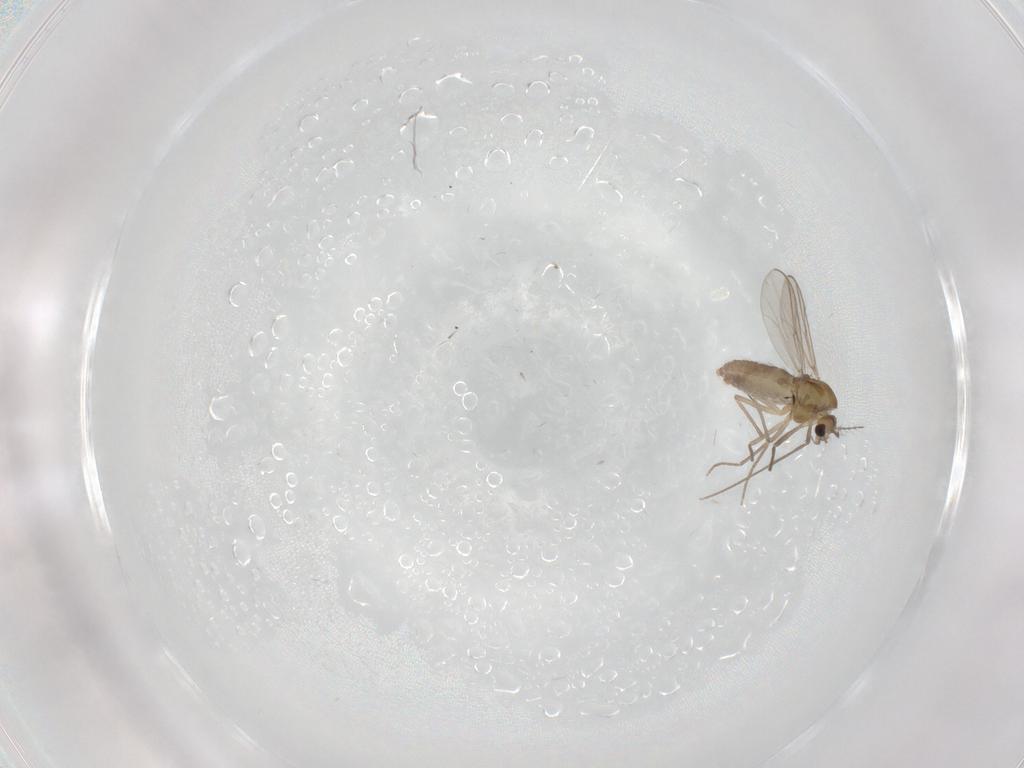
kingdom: Animalia
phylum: Arthropoda
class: Insecta
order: Diptera
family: Chironomidae
